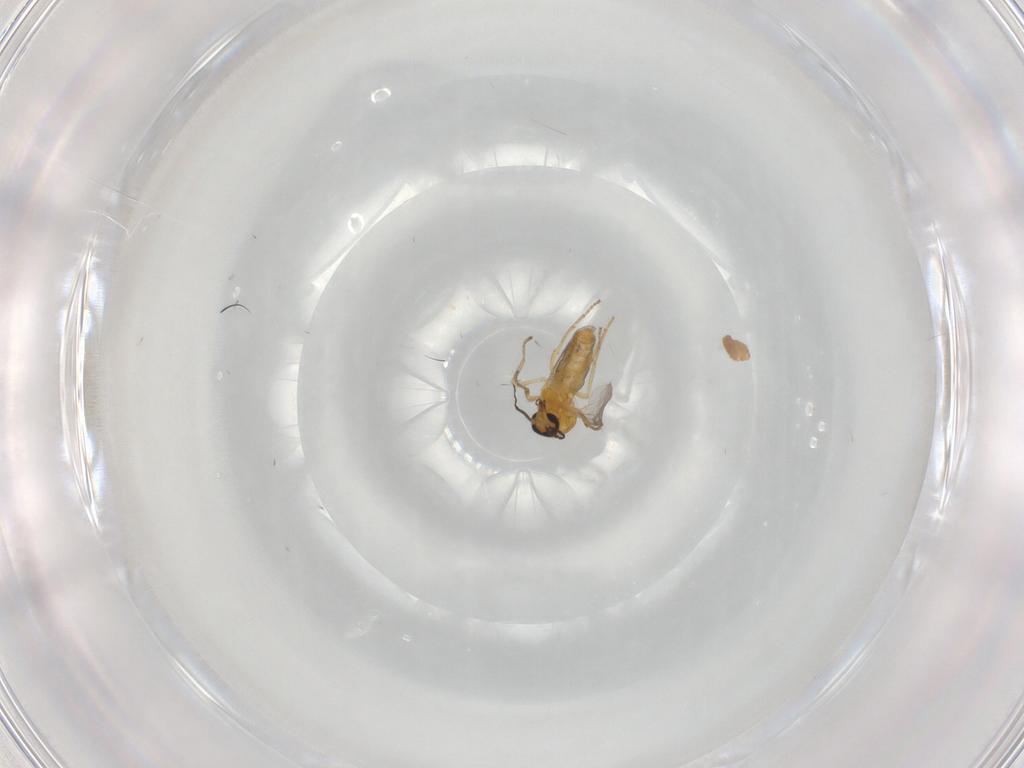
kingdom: Animalia
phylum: Arthropoda
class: Insecta
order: Diptera
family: Ceratopogonidae
